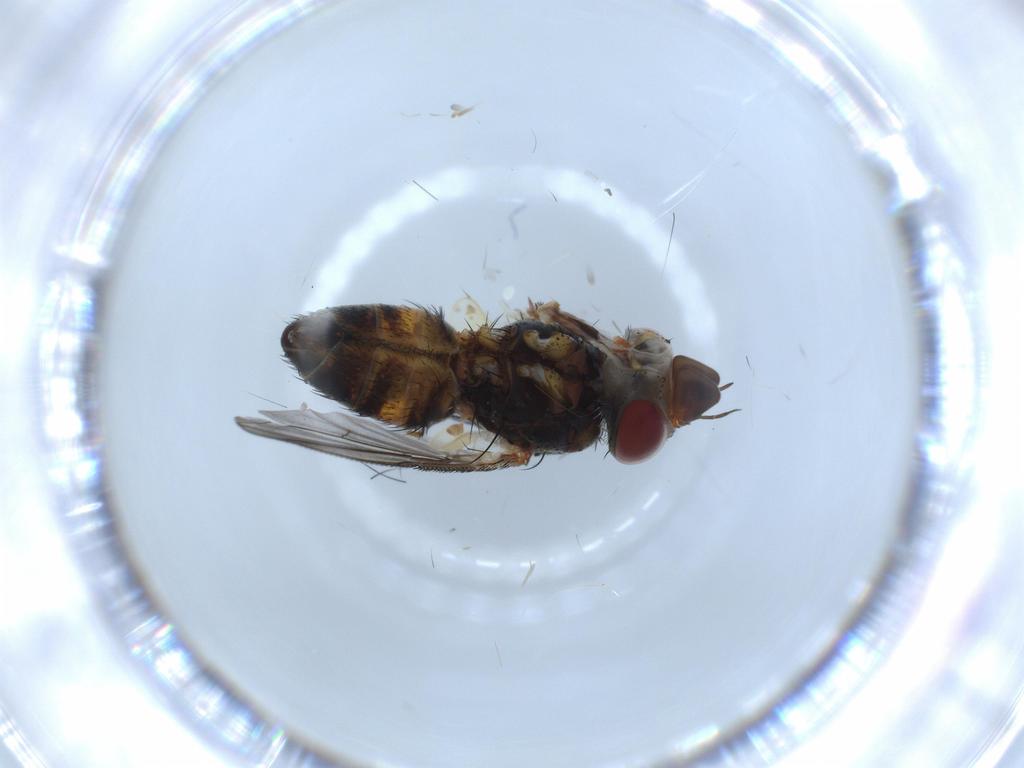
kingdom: Animalia
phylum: Arthropoda
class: Insecta
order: Diptera
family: Tachinidae
